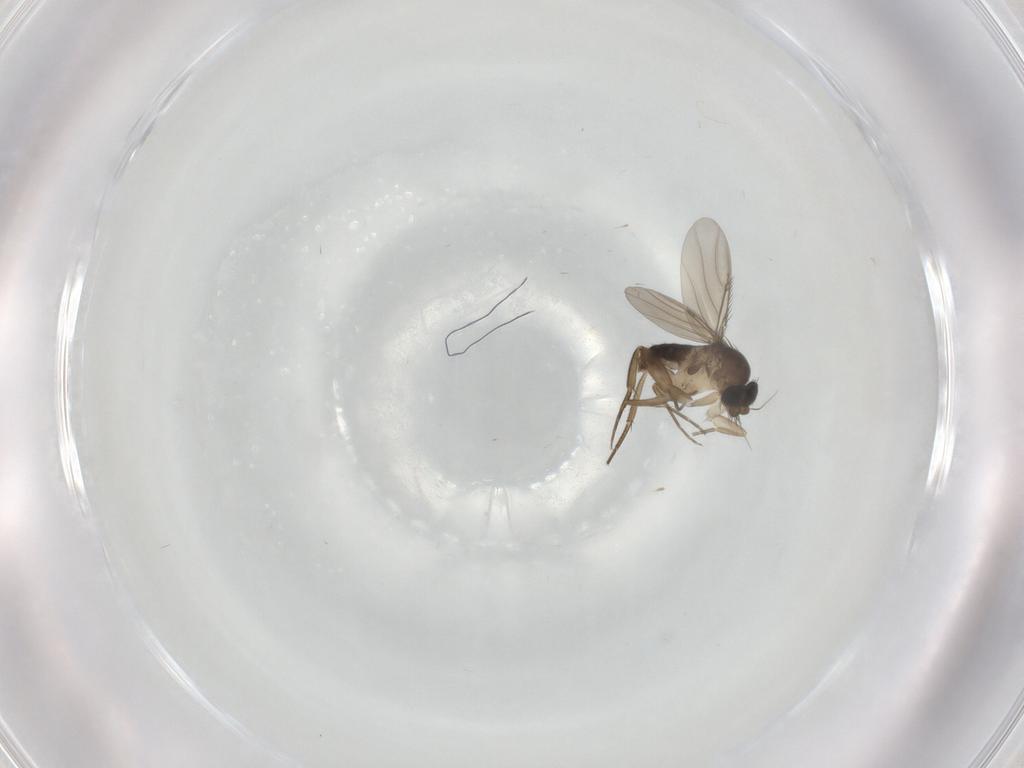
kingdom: Animalia
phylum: Arthropoda
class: Insecta
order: Diptera
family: Phoridae
